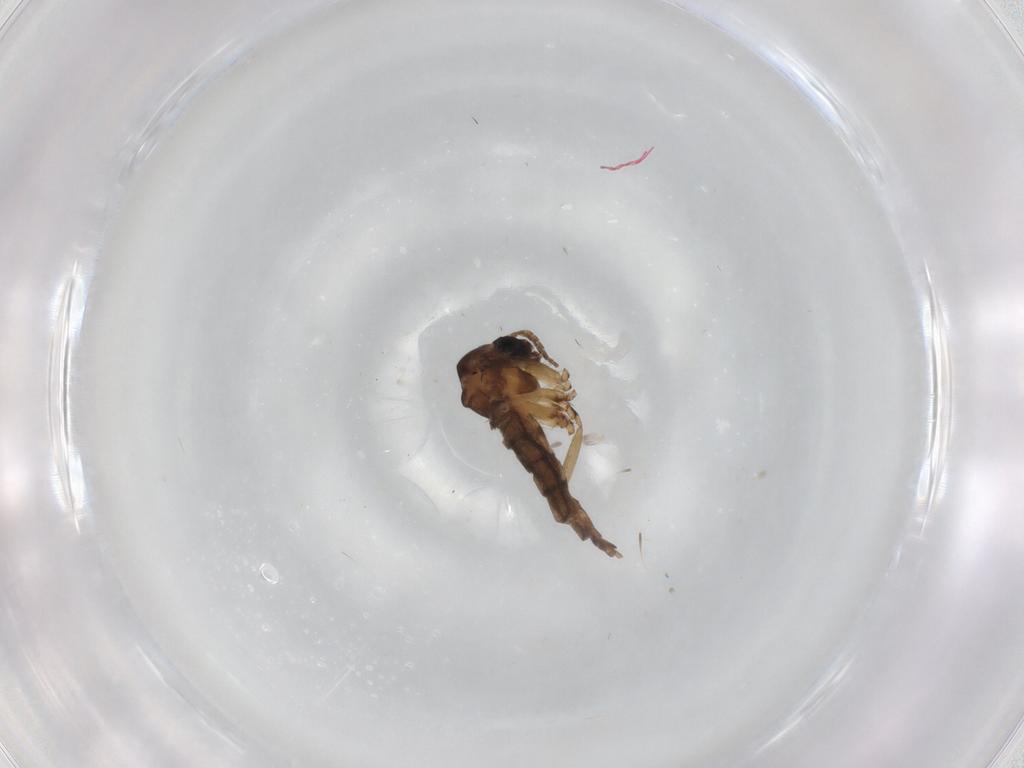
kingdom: Animalia
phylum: Arthropoda
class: Insecta
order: Diptera
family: Sciaridae
